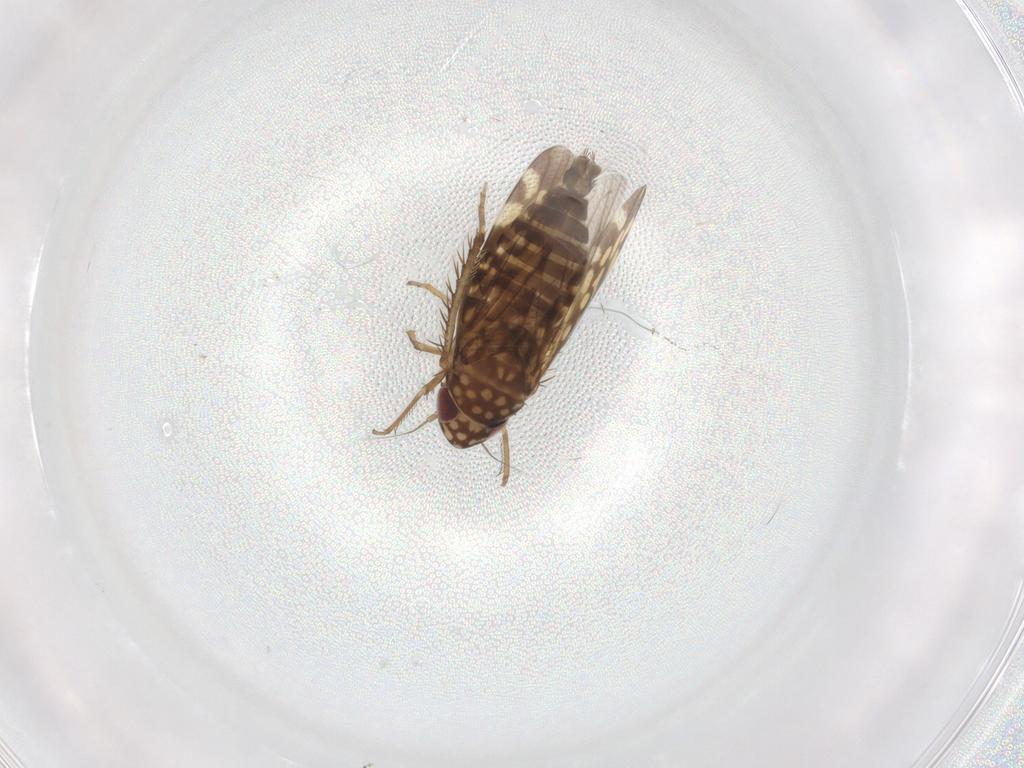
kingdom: Animalia
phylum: Arthropoda
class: Insecta
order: Hemiptera
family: Cicadellidae
